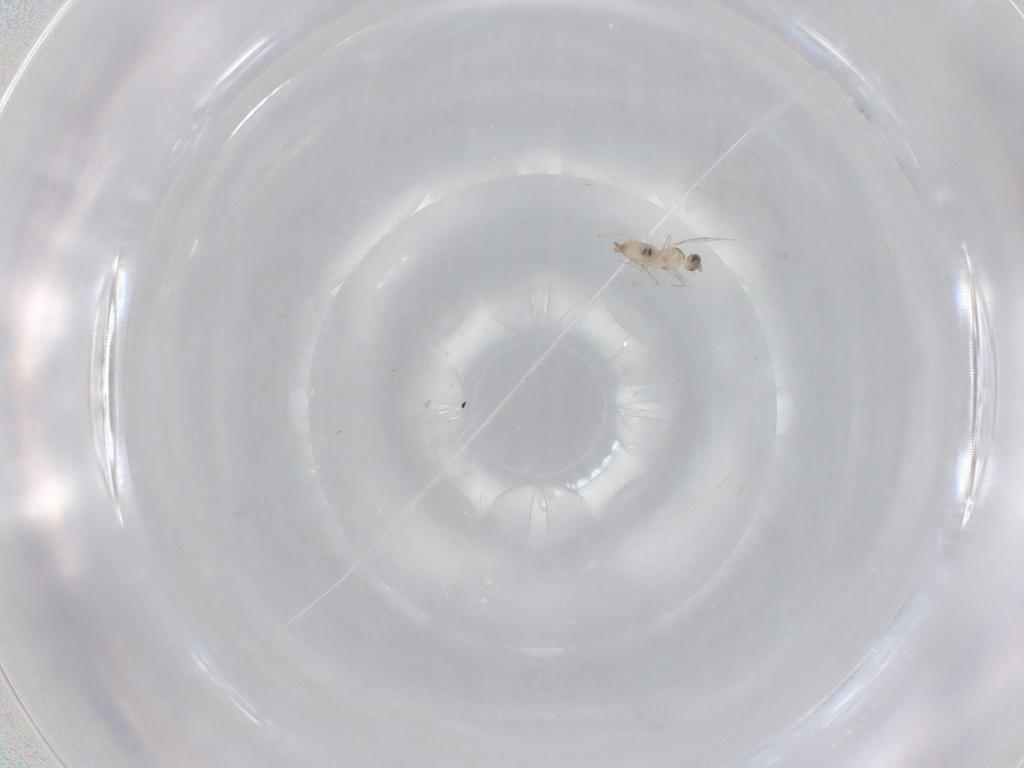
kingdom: Animalia
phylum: Arthropoda
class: Insecta
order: Diptera
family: Cecidomyiidae
